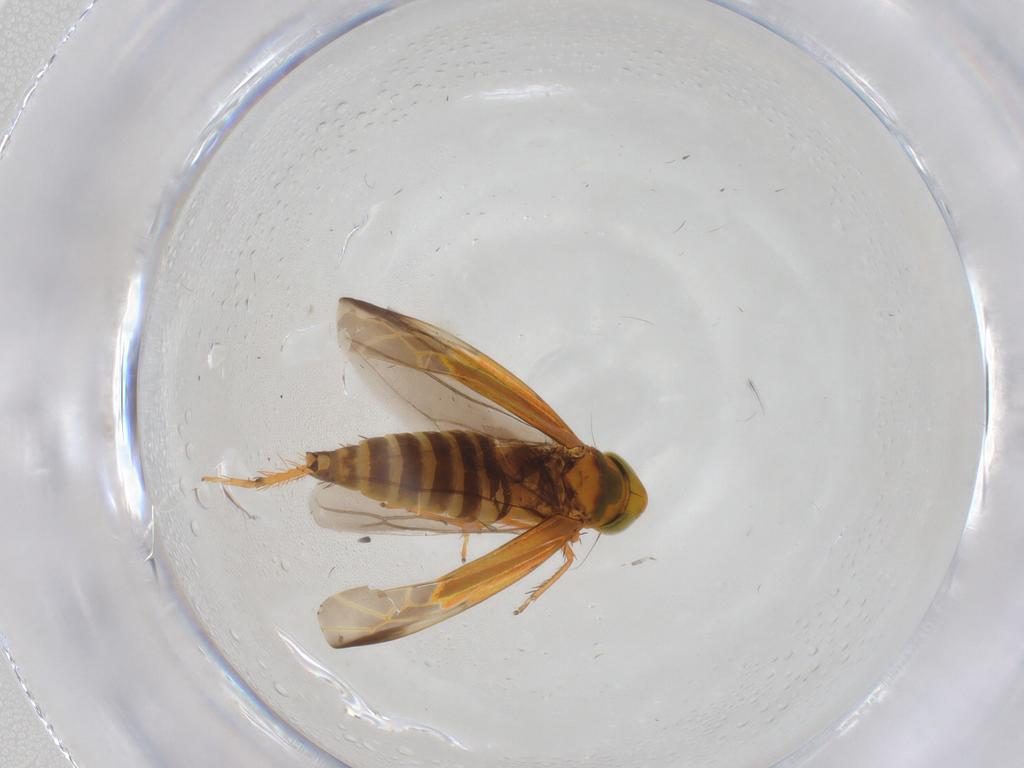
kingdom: Animalia
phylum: Arthropoda
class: Insecta
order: Hemiptera
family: Cicadellidae
